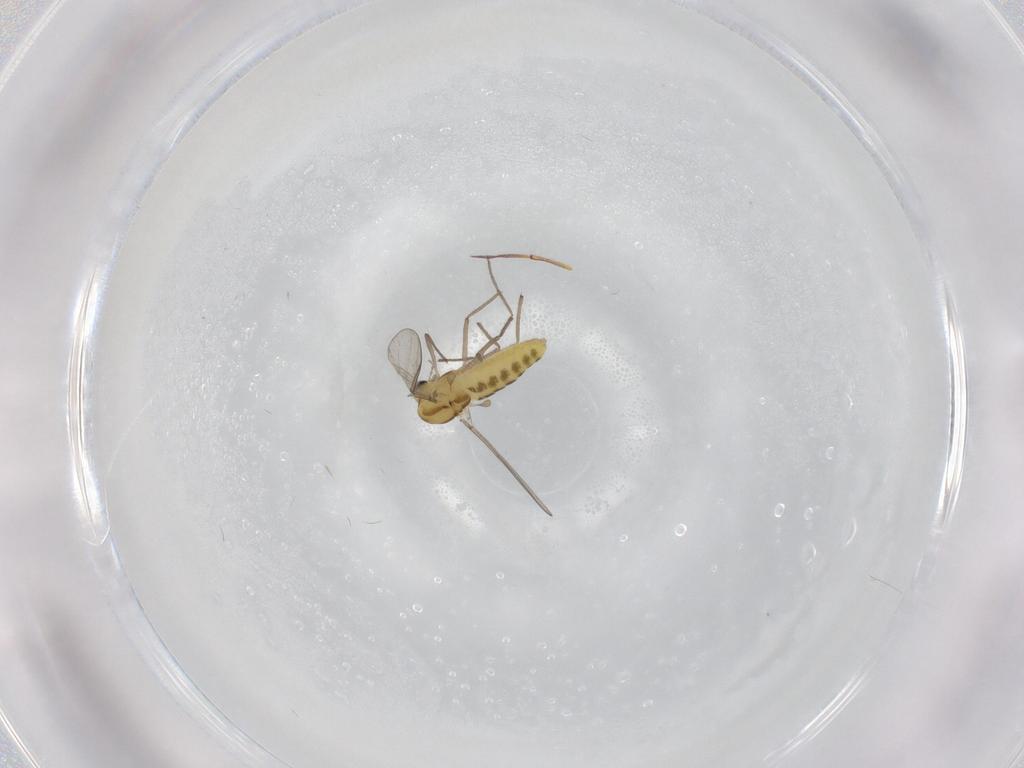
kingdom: Animalia
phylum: Arthropoda
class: Insecta
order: Diptera
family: Chironomidae
